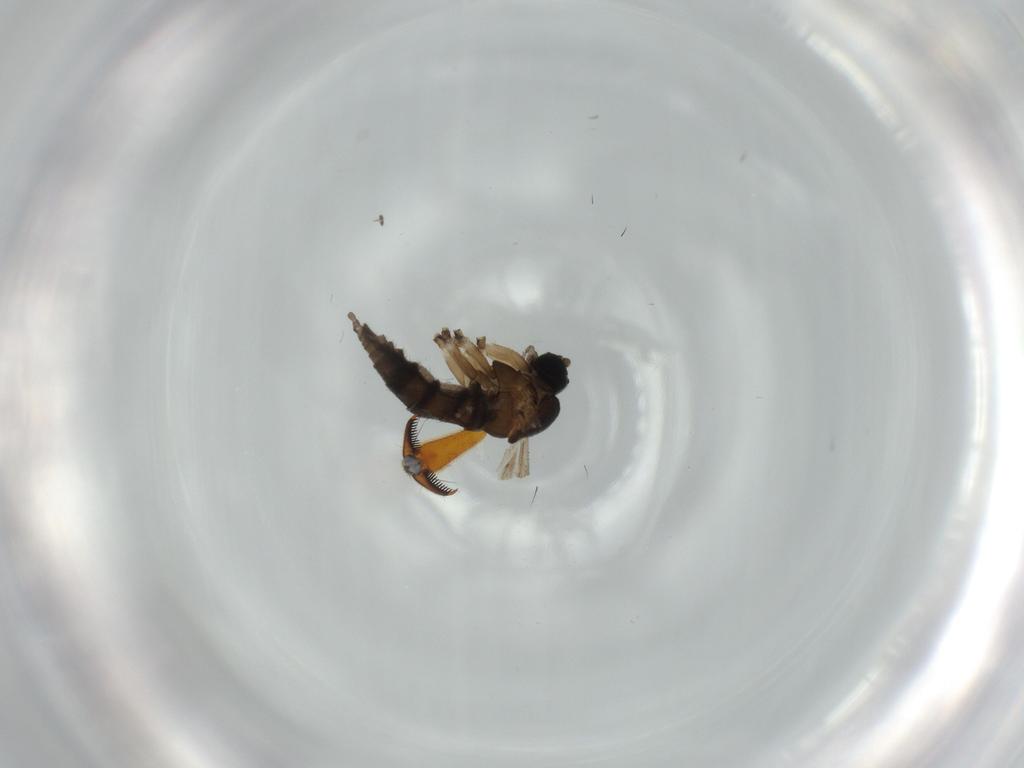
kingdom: Animalia
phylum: Arthropoda
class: Insecta
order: Diptera
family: Sciaridae
